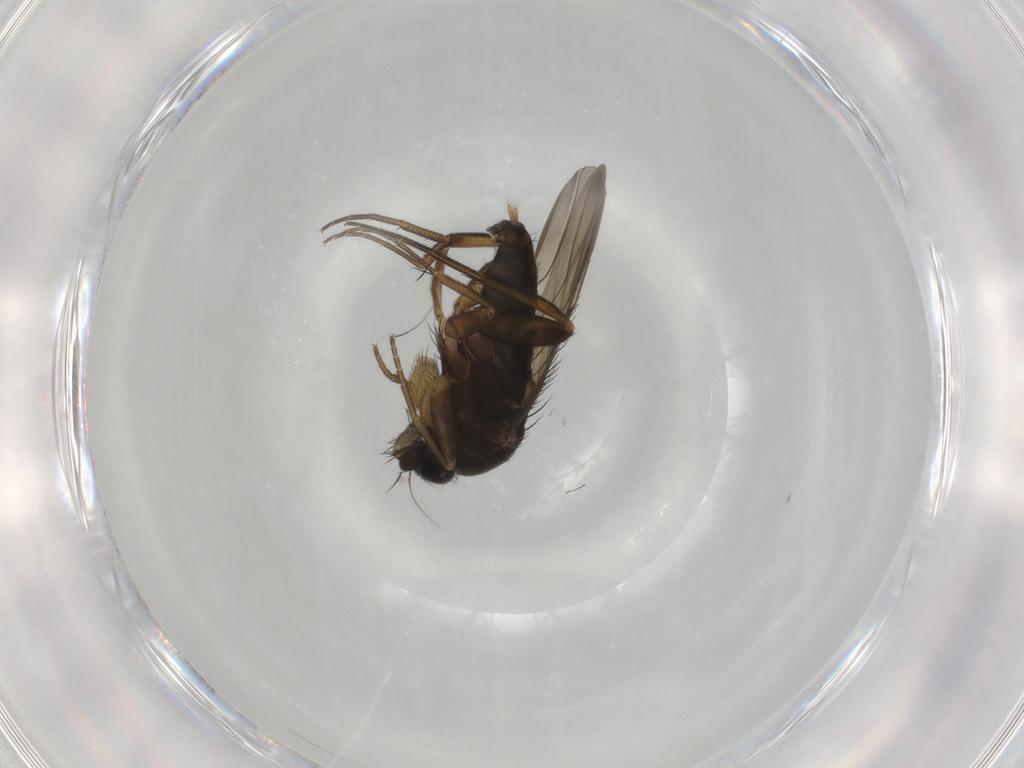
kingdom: Animalia
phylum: Arthropoda
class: Insecta
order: Diptera
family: Phoridae
